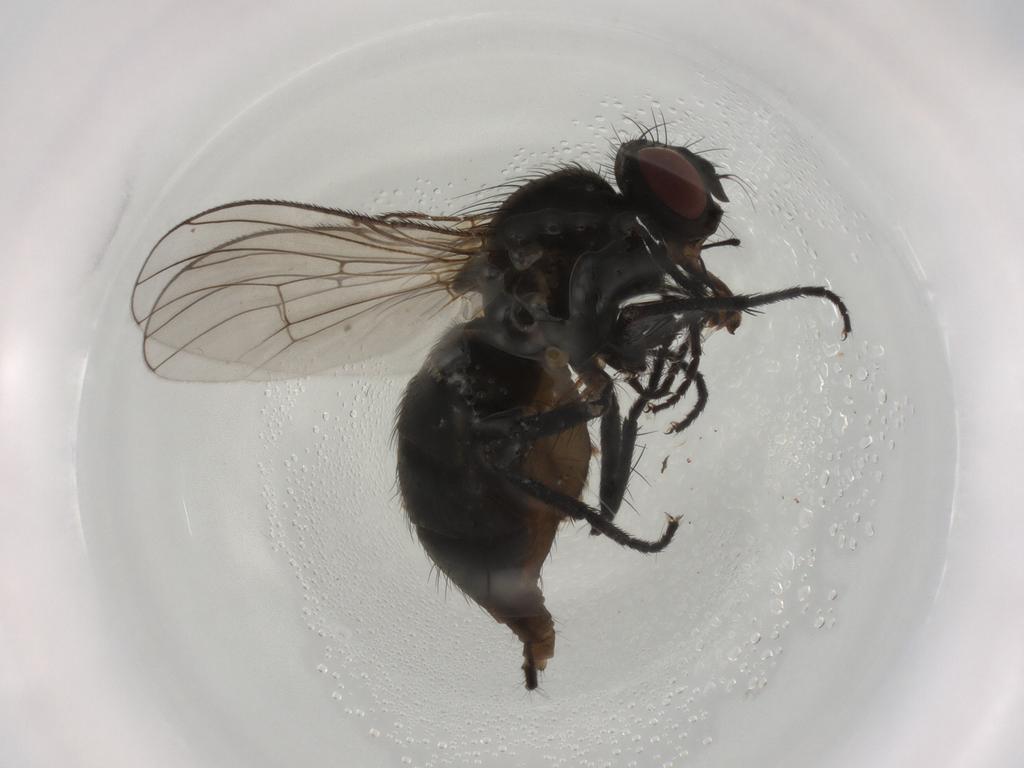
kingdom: Animalia
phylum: Arthropoda
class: Insecta
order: Diptera
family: Muscidae
